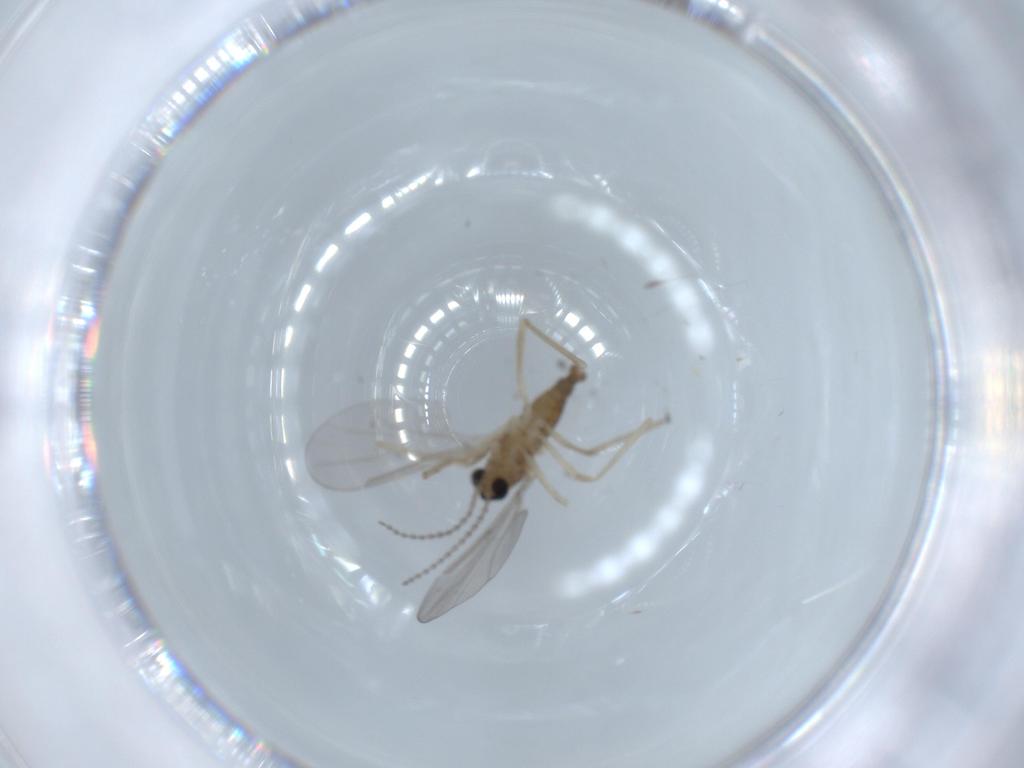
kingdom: Animalia
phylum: Arthropoda
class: Insecta
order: Diptera
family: Cecidomyiidae
